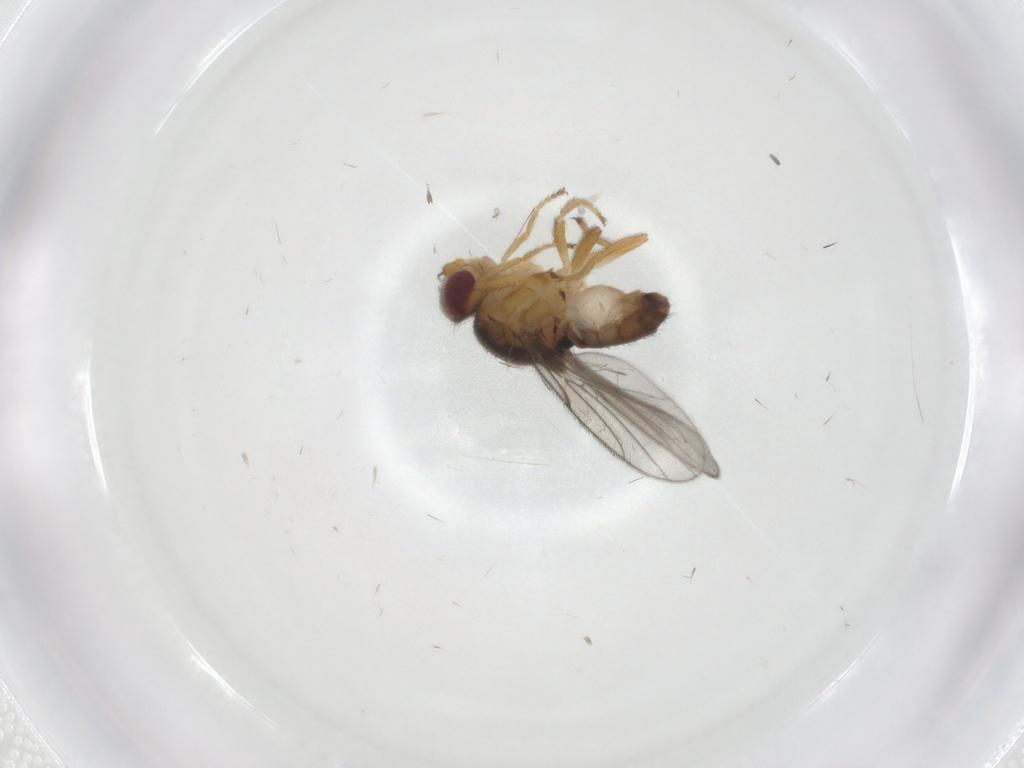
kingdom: Animalia
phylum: Arthropoda
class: Insecta
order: Diptera
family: Chloropidae
